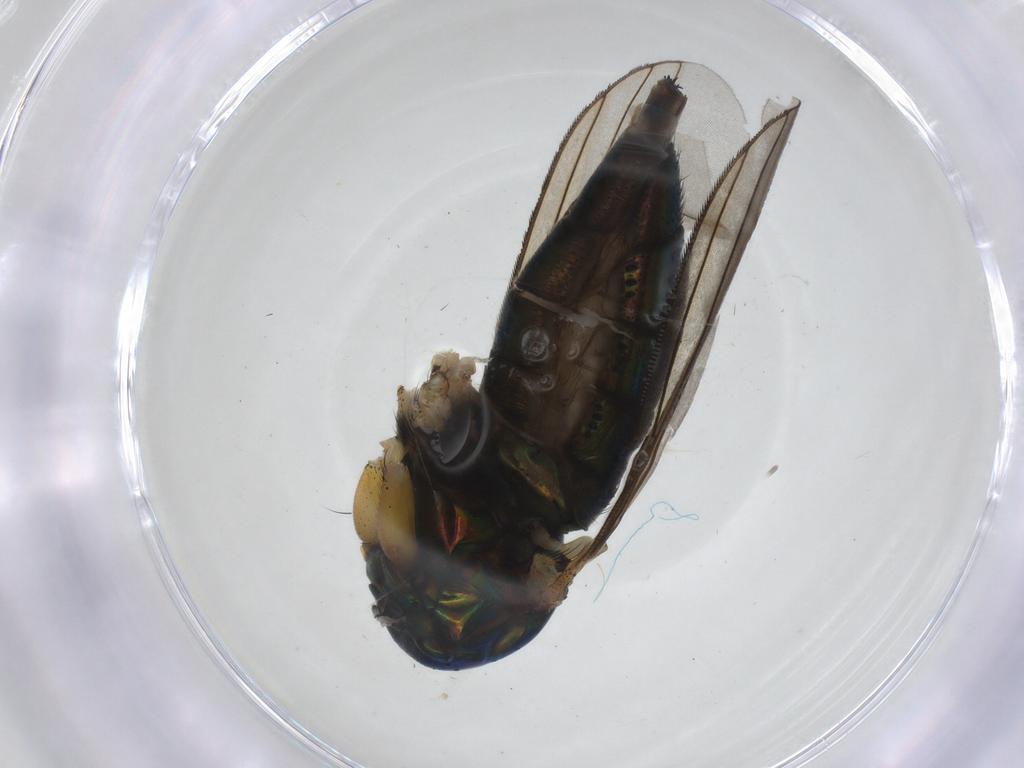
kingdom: Animalia
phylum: Arthropoda
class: Insecta
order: Diptera
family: Dolichopodidae
